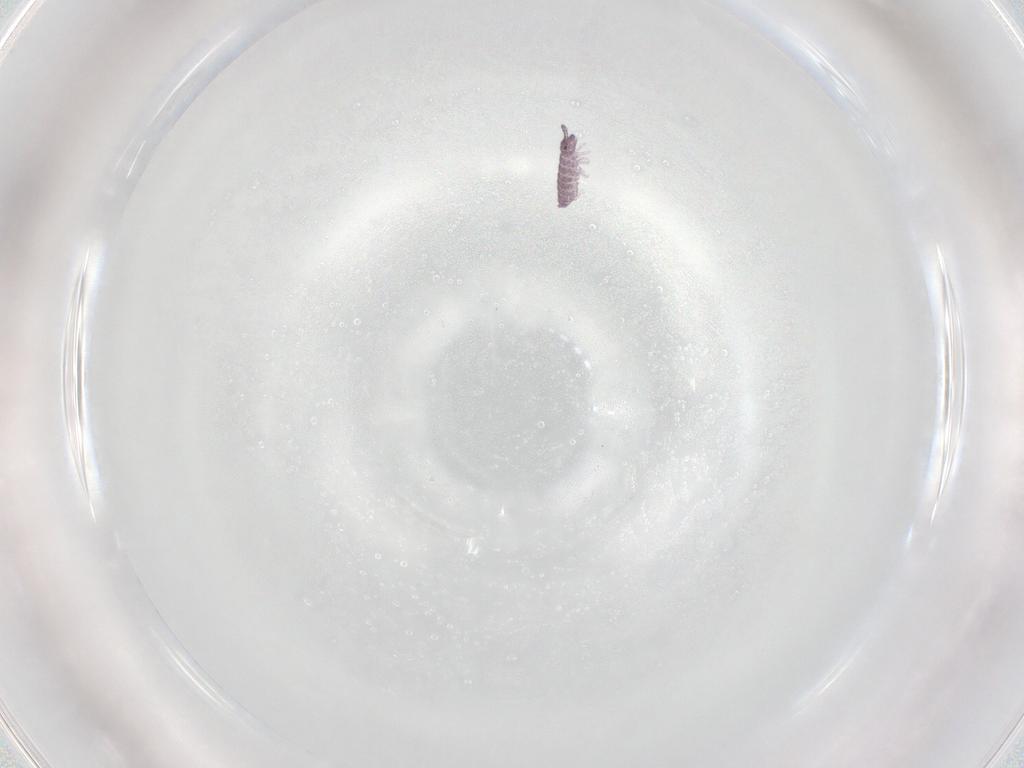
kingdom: Animalia
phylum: Arthropoda
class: Collembola
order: Poduromorpha
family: Hypogastruridae
